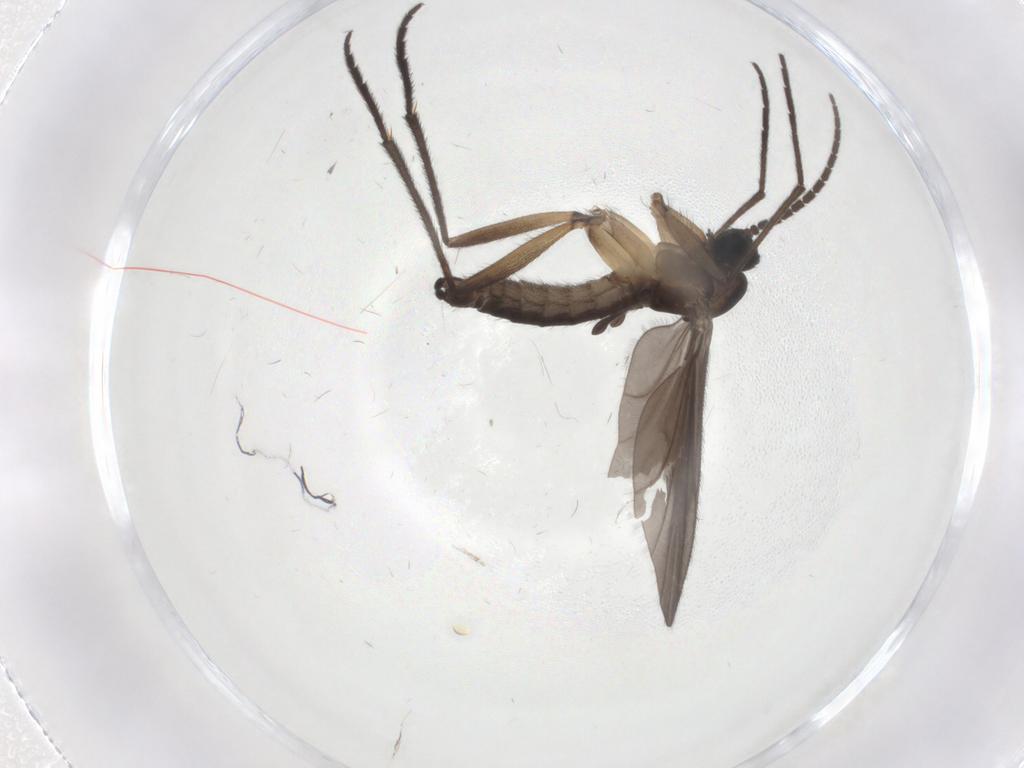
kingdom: Animalia
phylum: Arthropoda
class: Insecta
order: Diptera
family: Sciaridae
